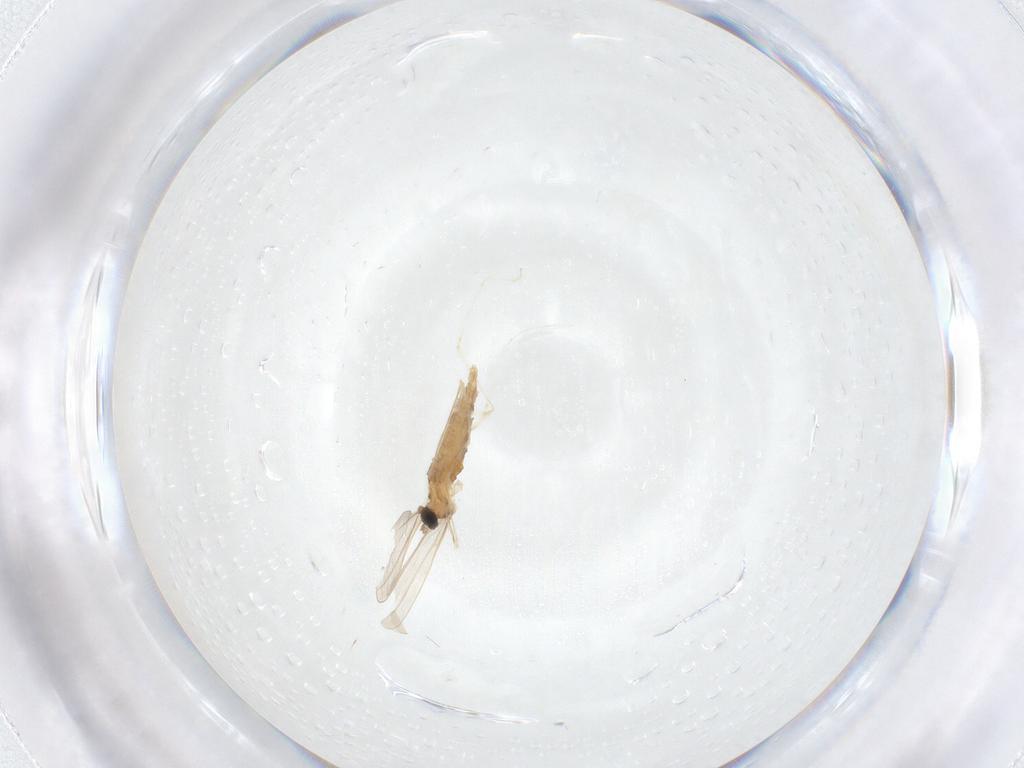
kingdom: Animalia
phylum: Arthropoda
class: Insecta
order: Diptera
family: Cecidomyiidae
